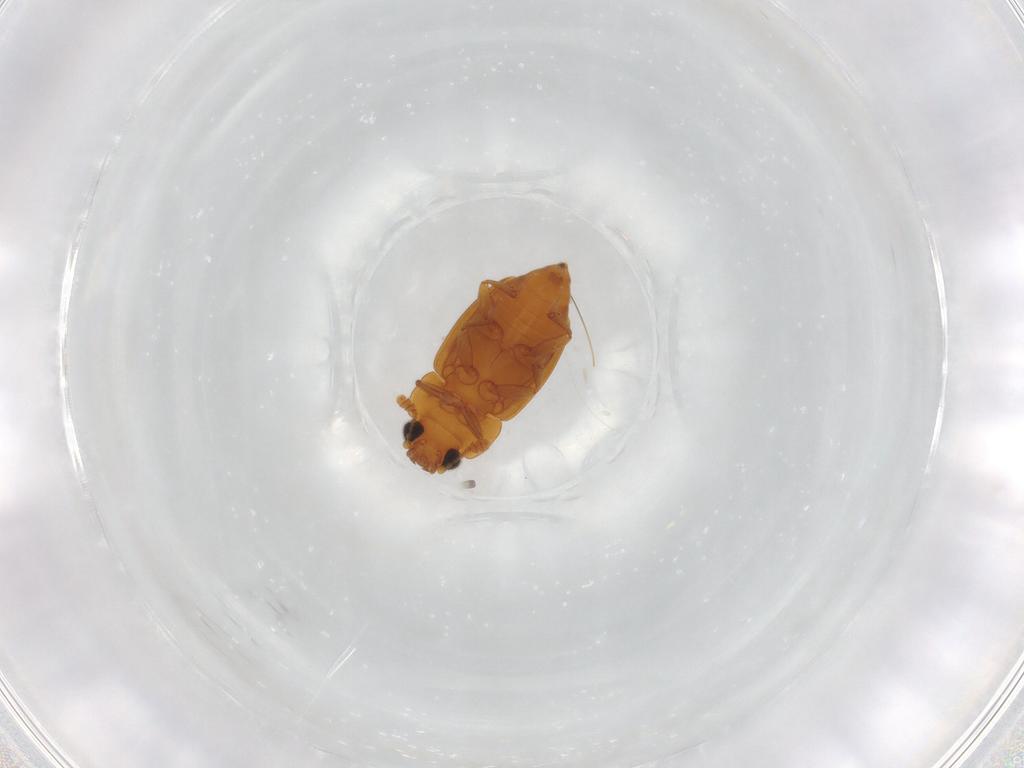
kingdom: Animalia
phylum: Arthropoda
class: Insecta
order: Coleoptera
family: Nitidulidae
